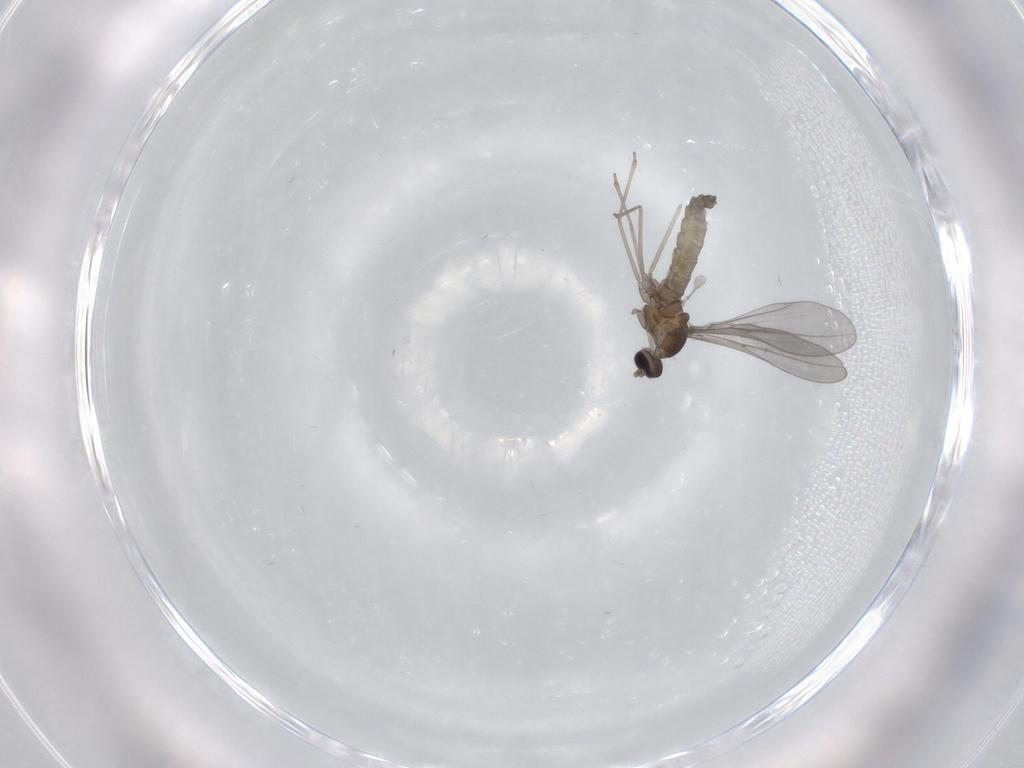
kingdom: Animalia
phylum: Arthropoda
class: Insecta
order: Diptera
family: Cecidomyiidae
